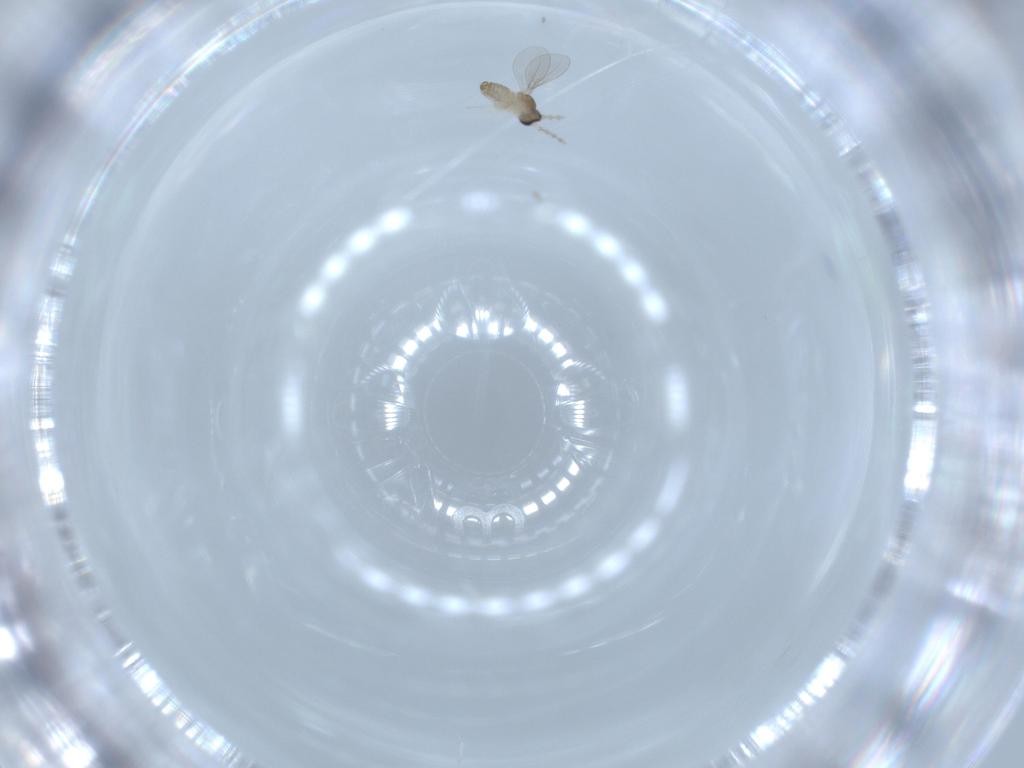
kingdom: Animalia
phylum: Arthropoda
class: Insecta
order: Diptera
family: Cecidomyiidae
